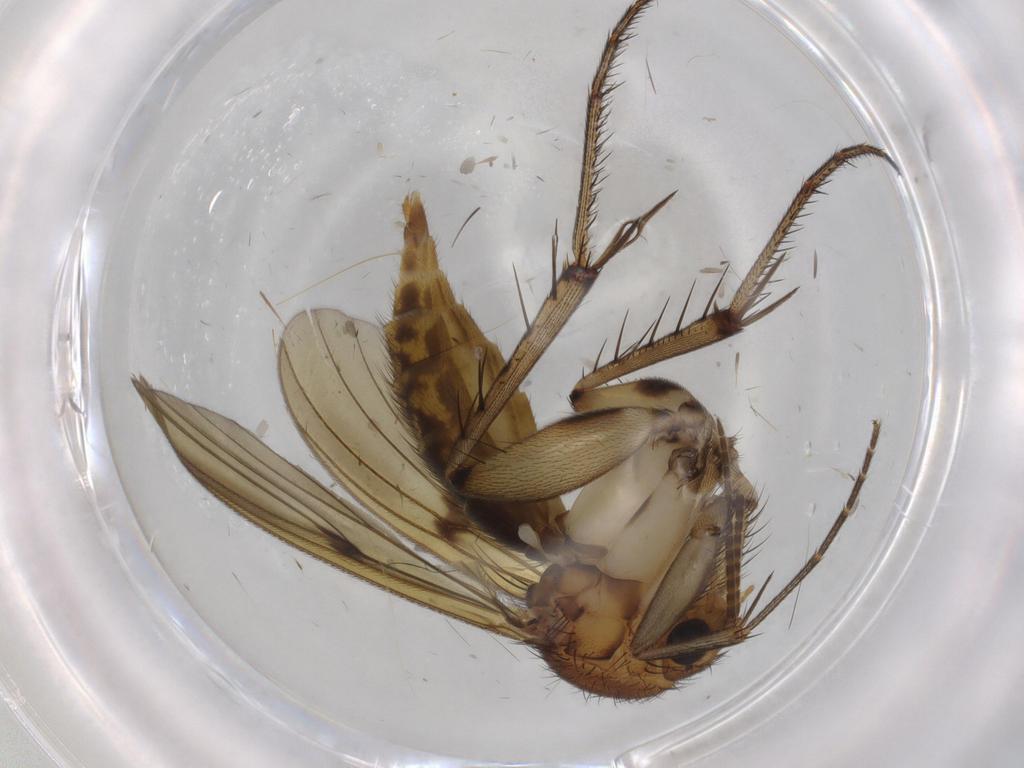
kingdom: Animalia
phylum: Arthropoda
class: Insecta
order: Diptera
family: Mycetophilidae
